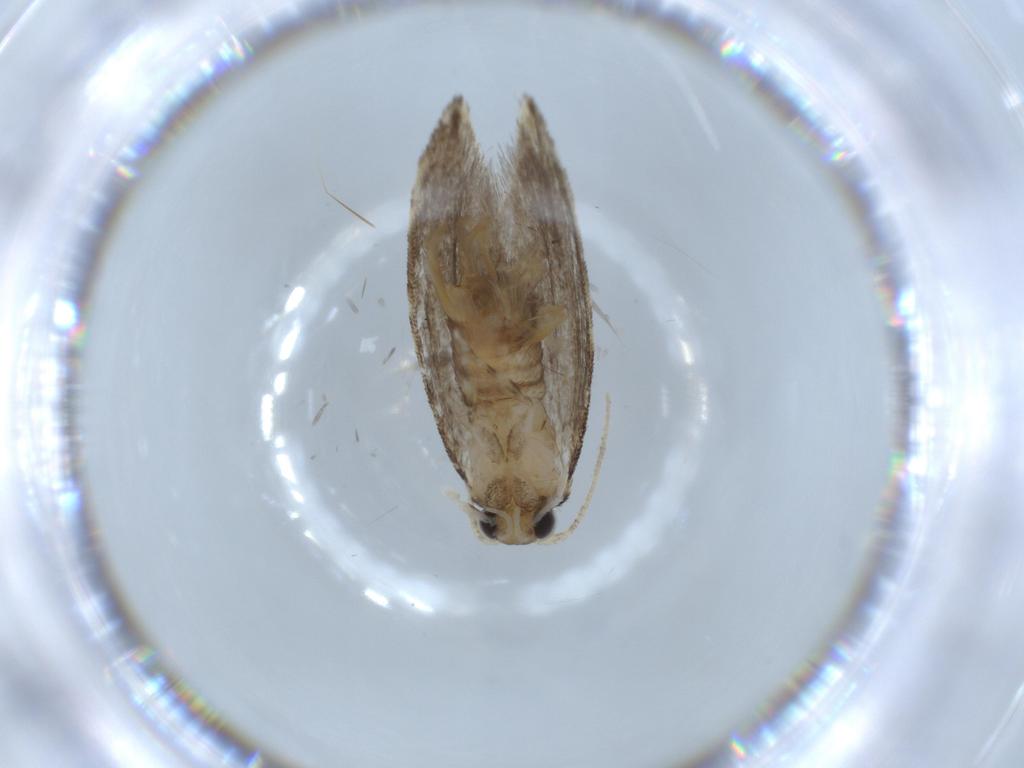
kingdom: Animalia
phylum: Arthropoda
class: Insecta
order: Lepidoptera
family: Tineidae
